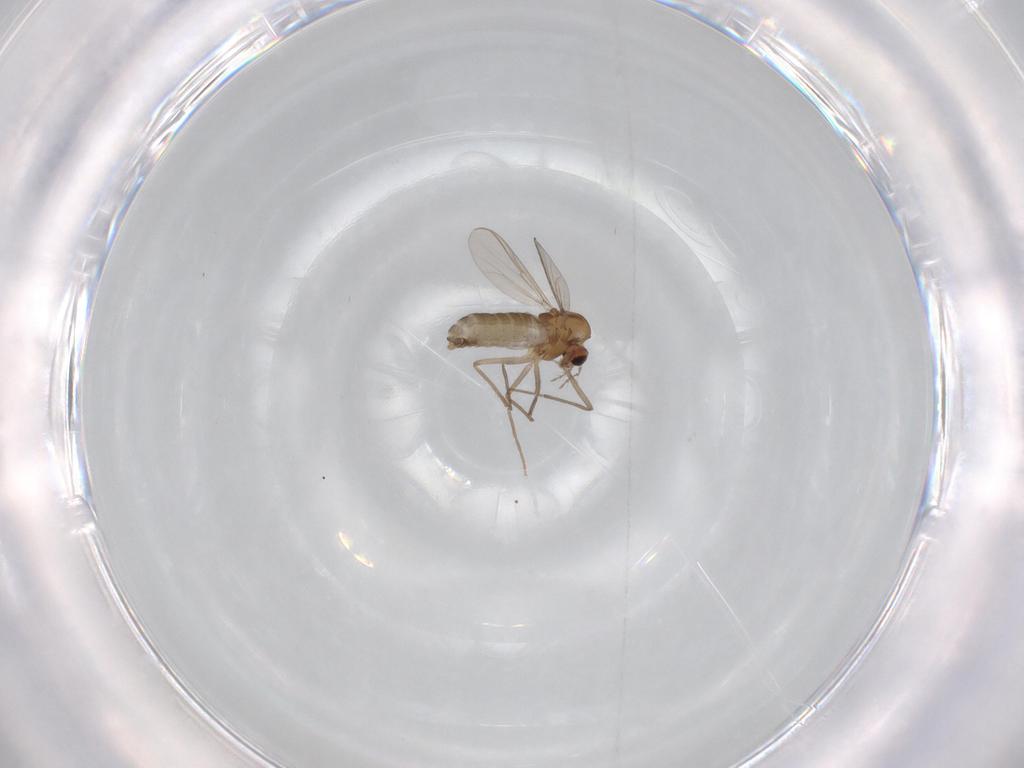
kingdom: Animalia
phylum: Arthropoda
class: Insecta
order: Diptera
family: Chironomidae
